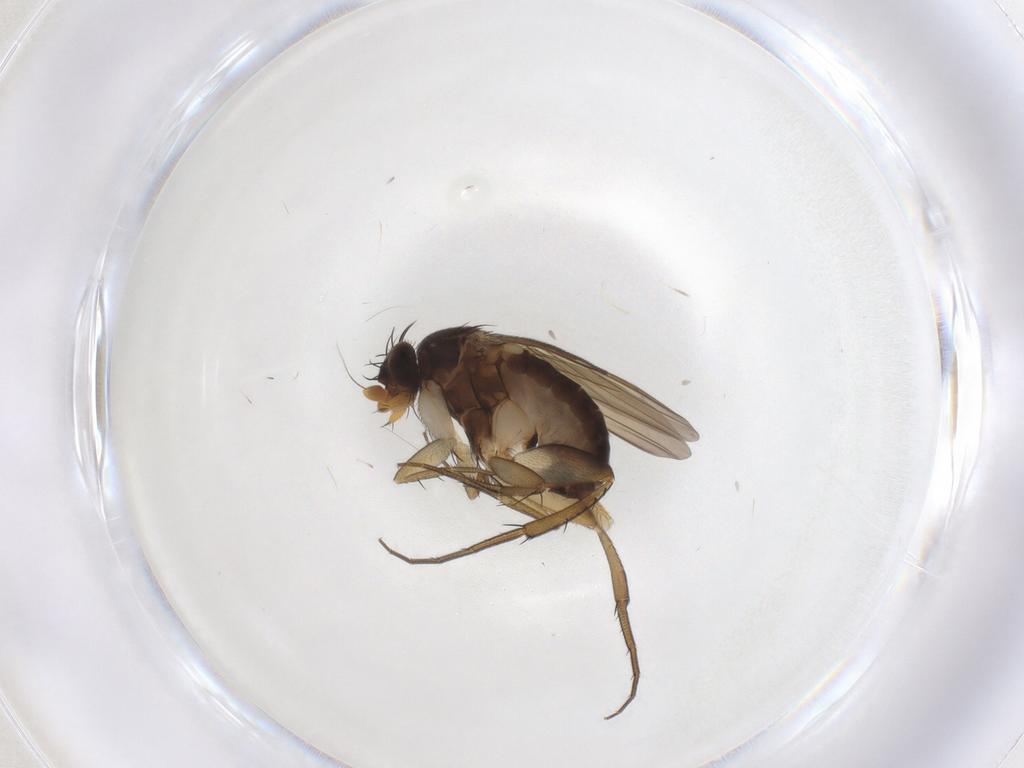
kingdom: Animalia
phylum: Arthropoda
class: Insecta
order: Diptera
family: Phoridae
